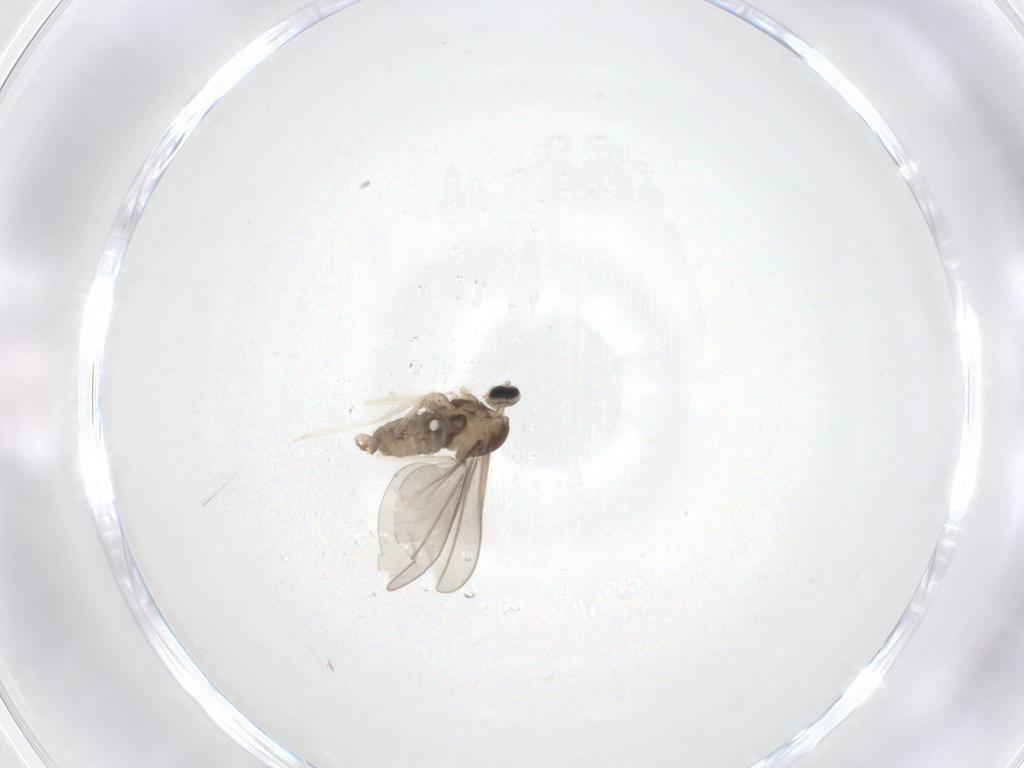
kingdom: Animalia
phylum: Arthropoda
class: Insecta
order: Diptera
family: Cecidomyiidae
